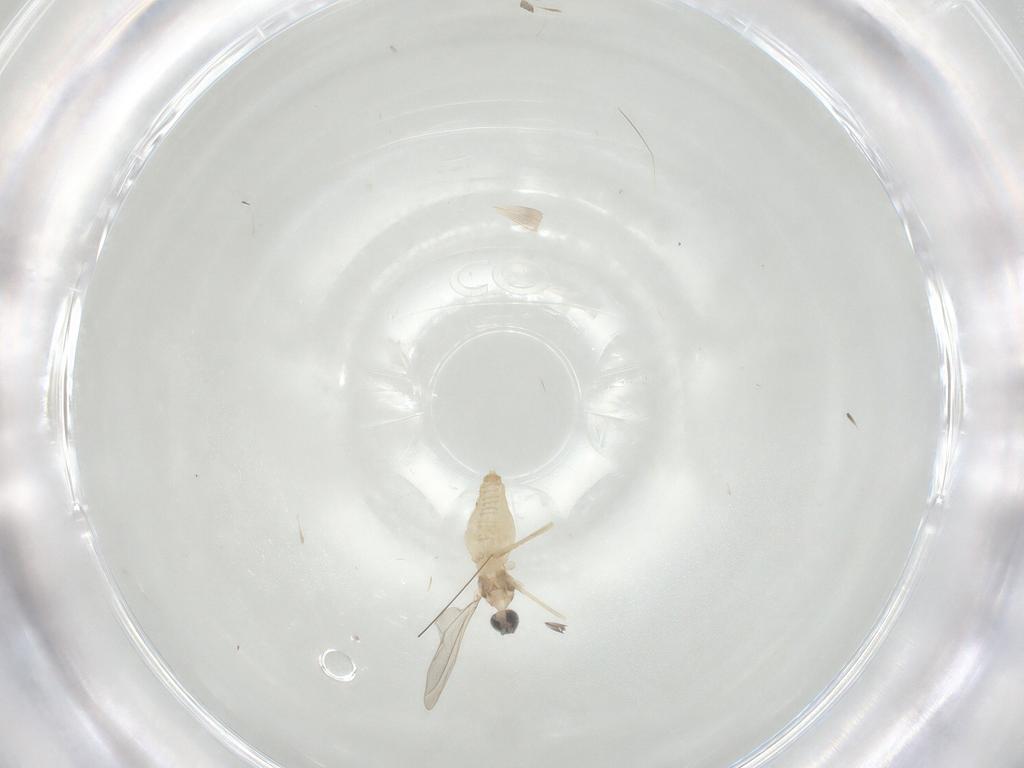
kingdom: Animalia
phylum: Arthropoda
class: Insecta
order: Diptera
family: Cecidomyiidae
